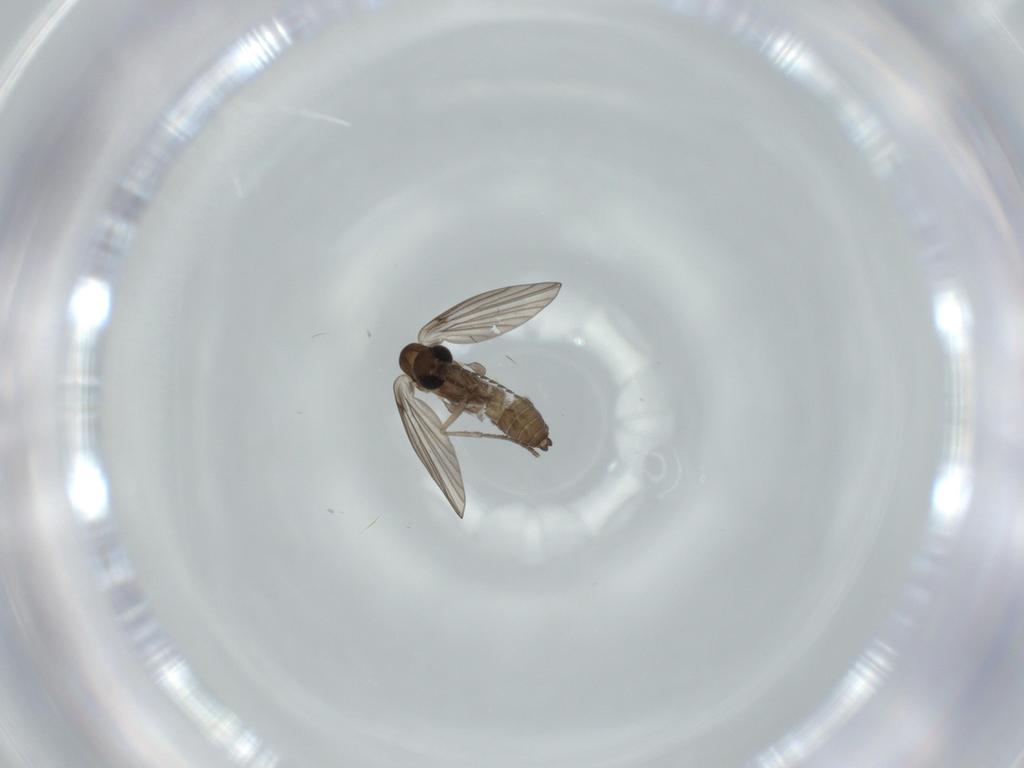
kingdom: Animalia
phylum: Arthropoda
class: Insecta
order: Diptera
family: Psychodidae
